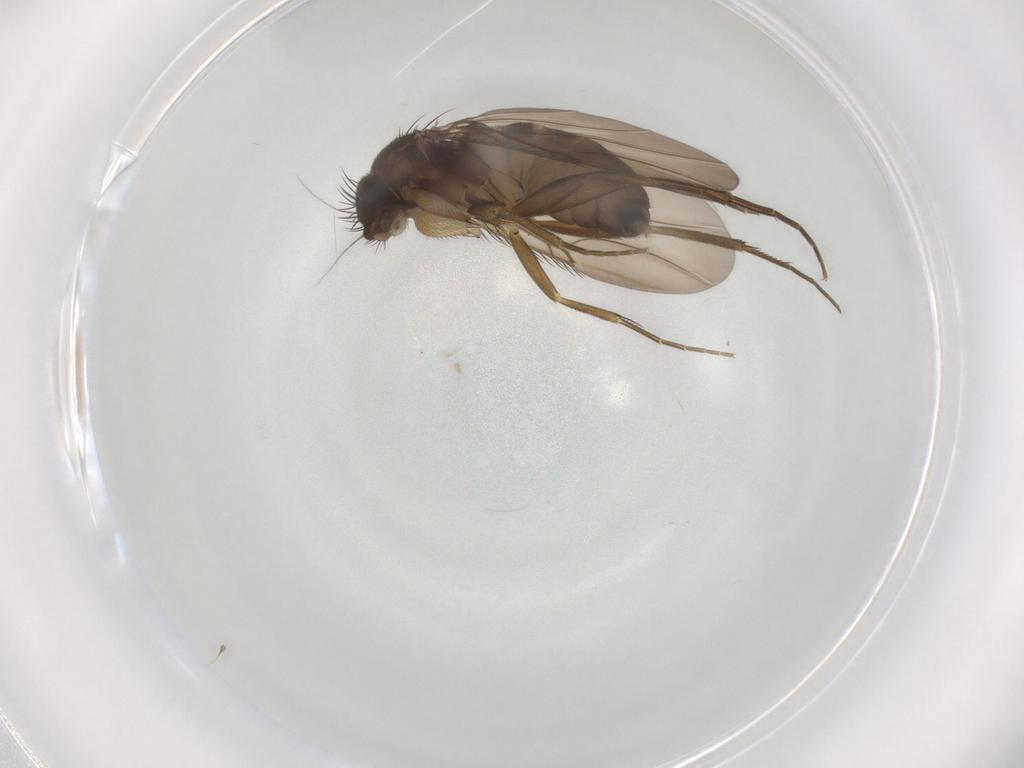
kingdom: Animalia
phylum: Arthropoda
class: Insecta
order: Diptera
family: Phoridae
